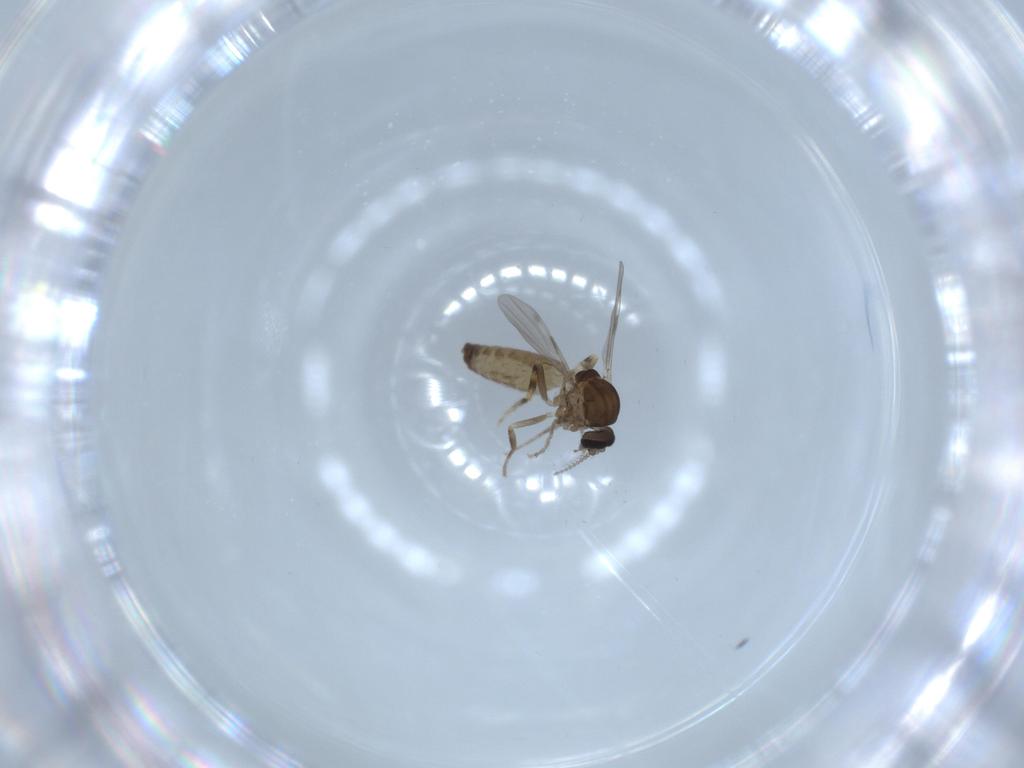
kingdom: Animalia
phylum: Arthropoda
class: Insecta
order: Diptera
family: Ceratopogonidae
